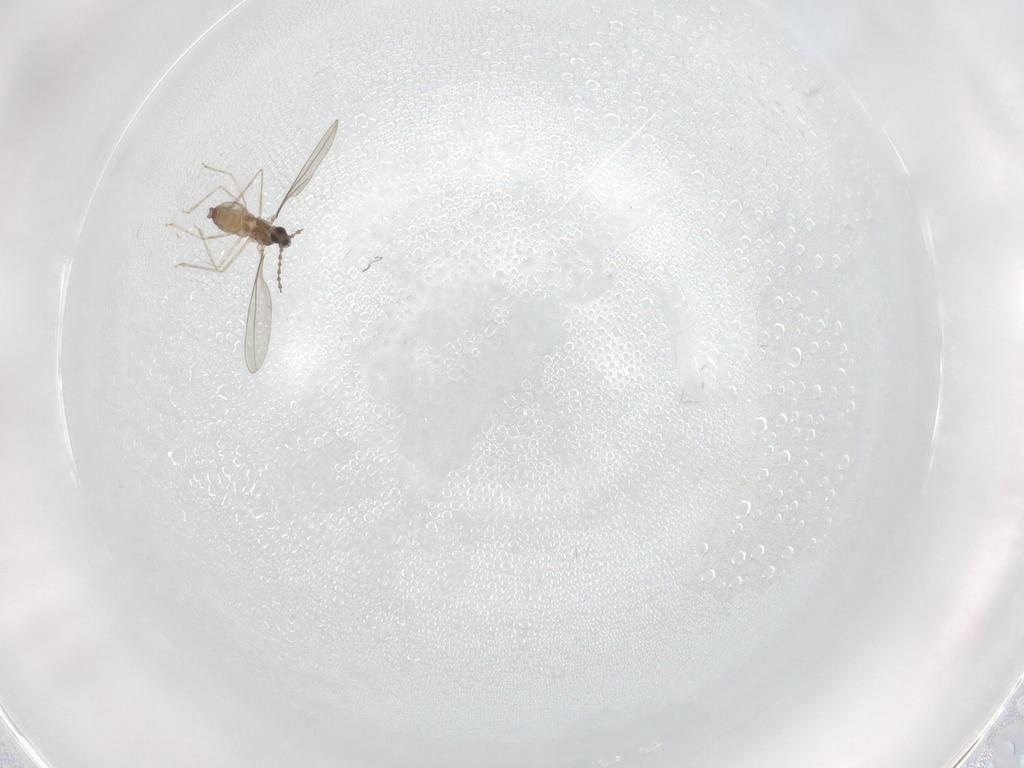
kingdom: Animalia
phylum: Arthropoda
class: Insecta
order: Diptera
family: Cecidomyiidae
